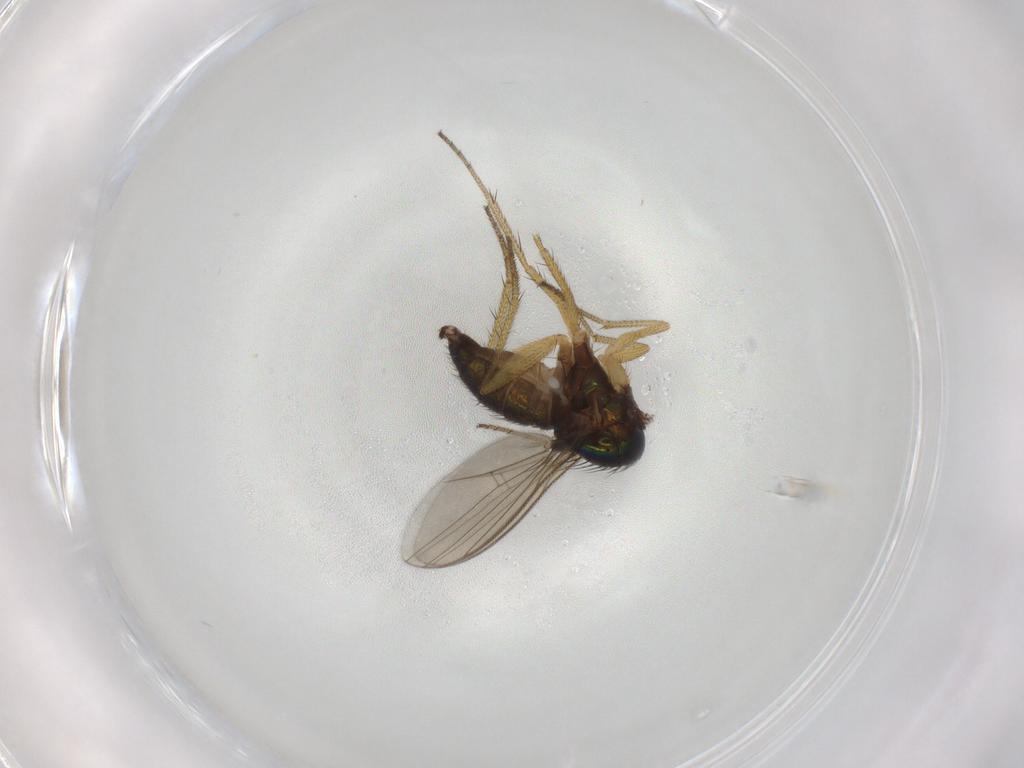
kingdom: Animalia
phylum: Arthropoda
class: Insecta
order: Diptera
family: Dolichopodidae
